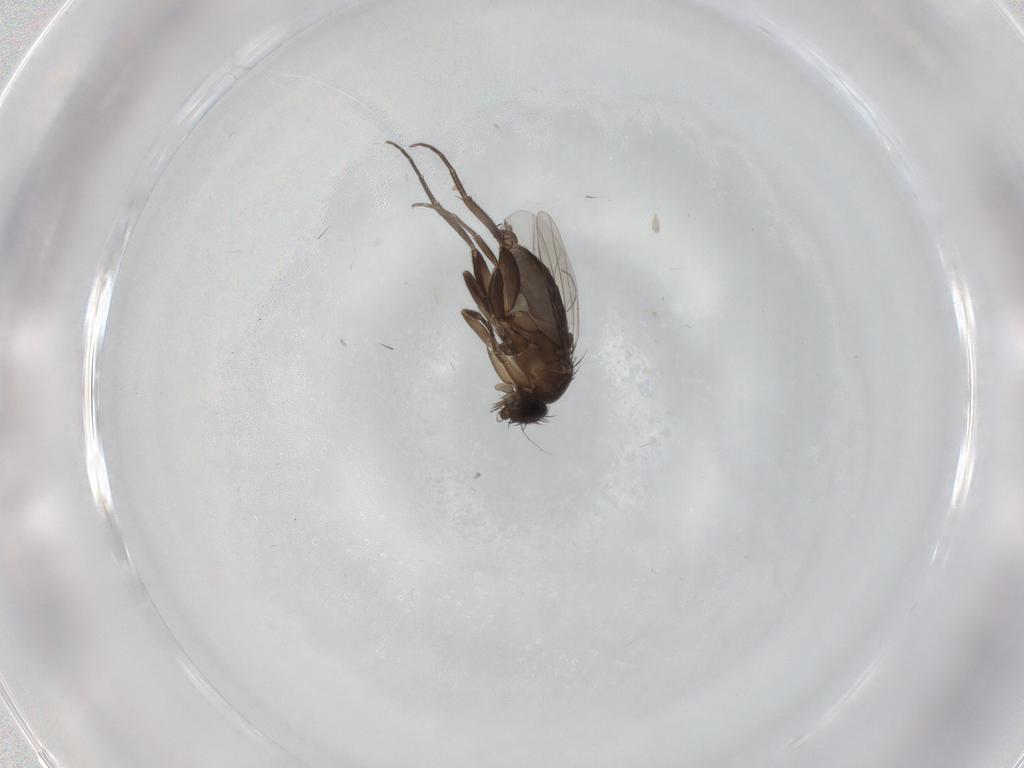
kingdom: Animalia
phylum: Arthropoda
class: Insecta
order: Diptera
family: Phoridae
